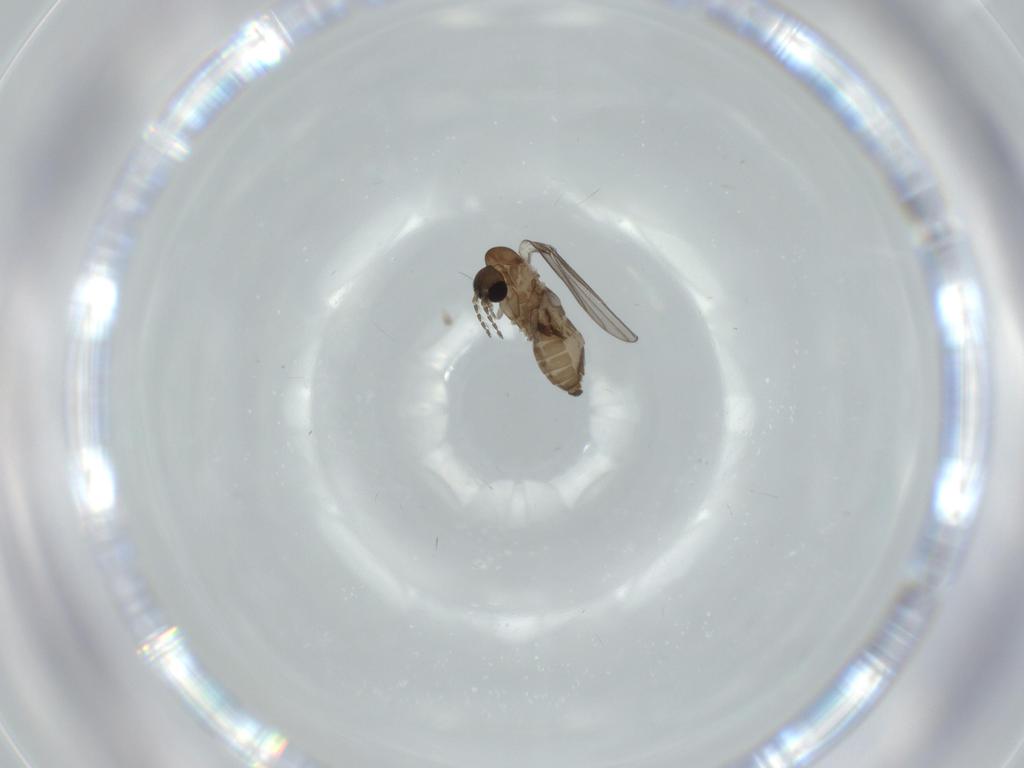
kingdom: Animalia
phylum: Arthropoda
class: Insecta
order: Diptera
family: Psychodidae
